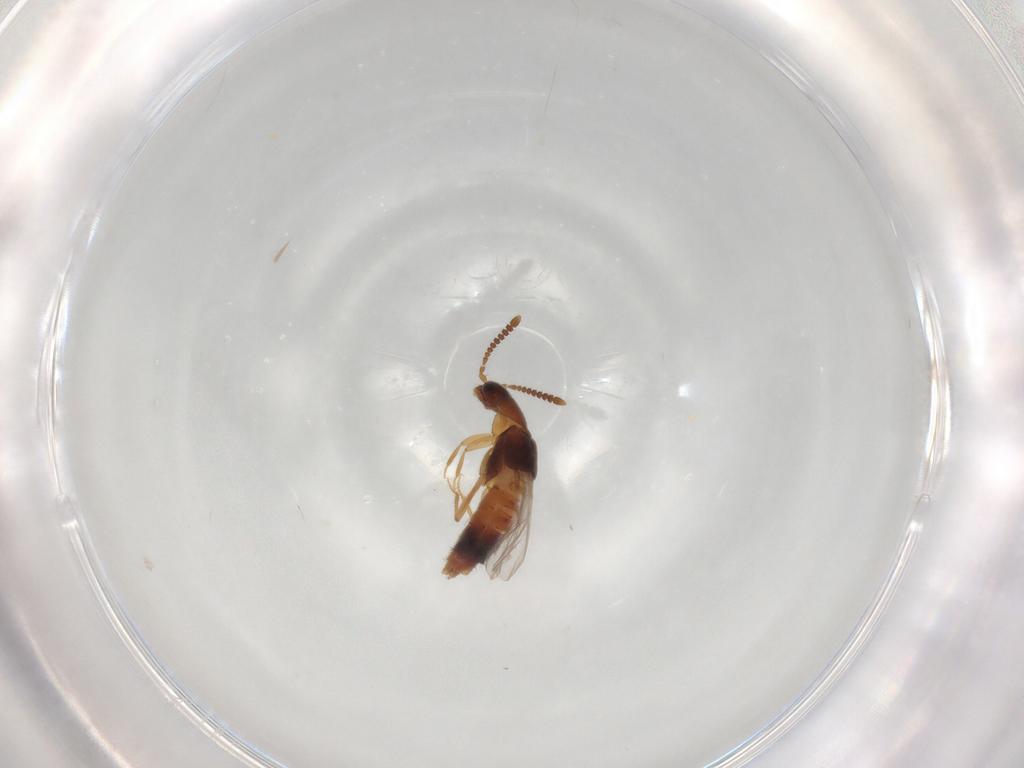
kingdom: Animalia
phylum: Arthropoda
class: Insecta
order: Coleoptera
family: Staphylinidae
